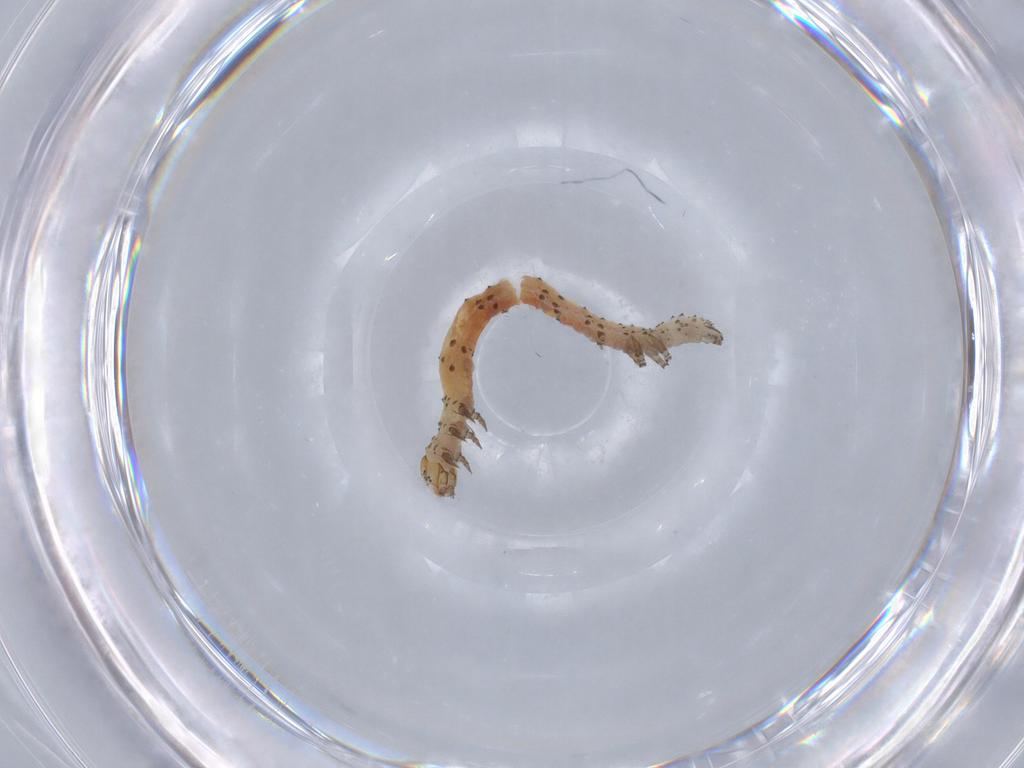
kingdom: Animalia
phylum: Arthropoda
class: Insecta
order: Lepidoptera
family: Erebidae
